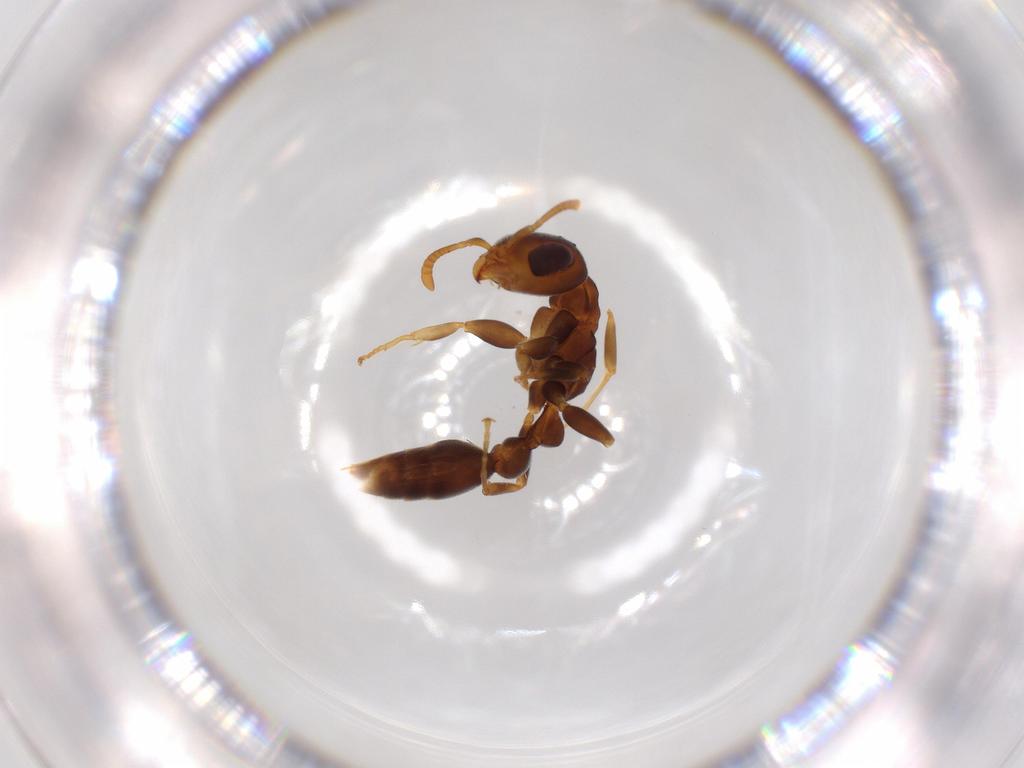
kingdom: Animalia
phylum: Arthropoda
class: Insecta
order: Hymenoptera
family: Formicidae
